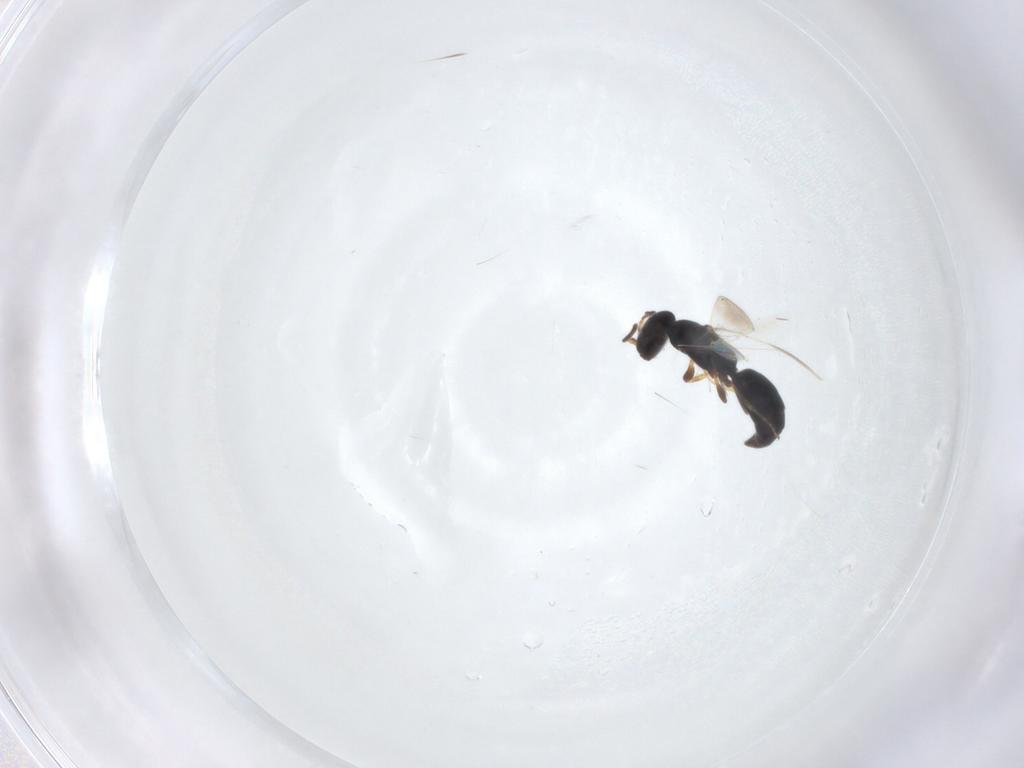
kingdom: Animalia
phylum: Arthropoda
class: Insecta
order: Hymenoptera
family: Bethylidae
